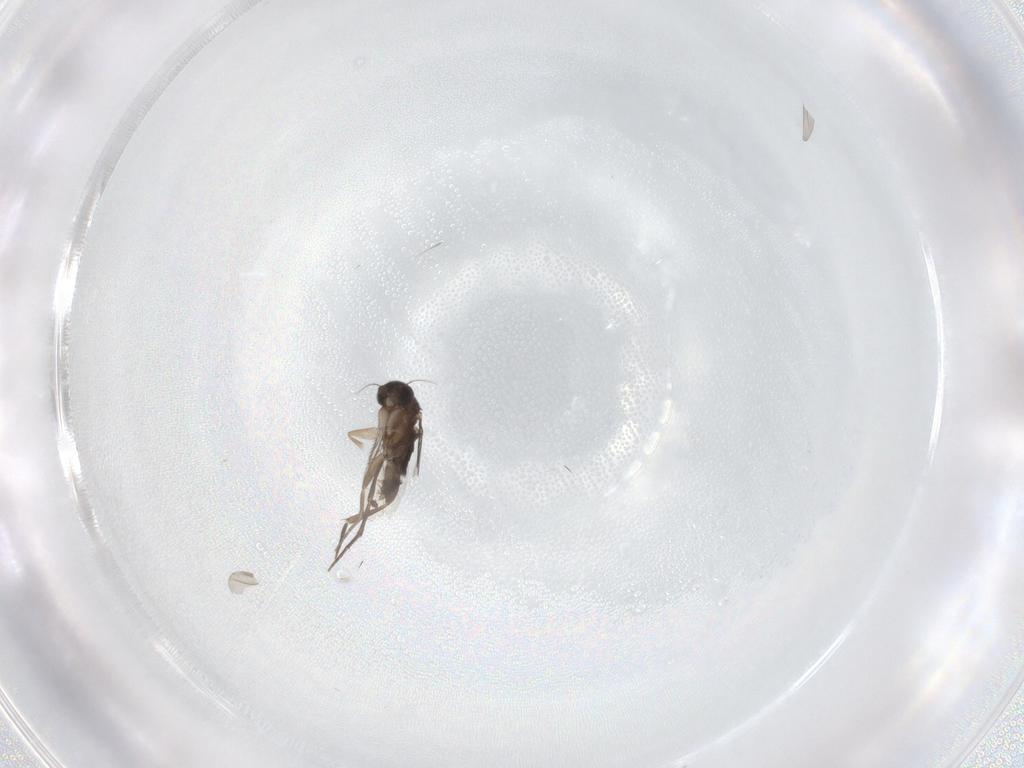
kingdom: Animalia
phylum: Arthropoda
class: Insecta
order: Diptera
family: Phoridae
